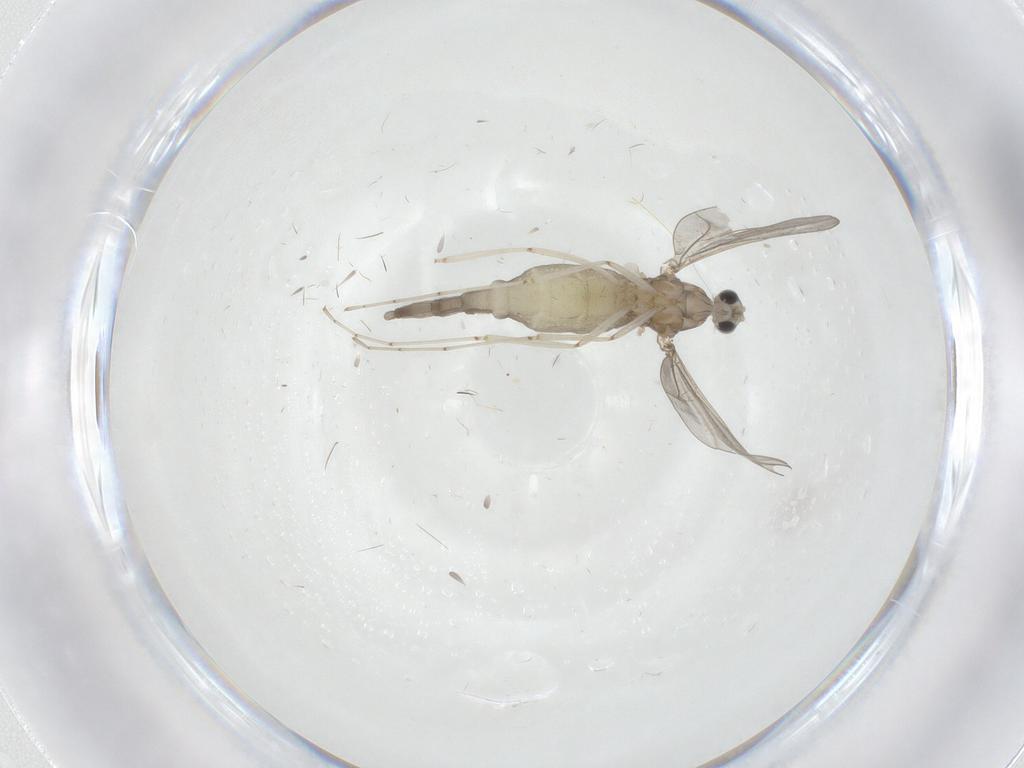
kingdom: Animalia
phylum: Arthropoda
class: Insecta
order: Diptera
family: Cecidomyiidae
